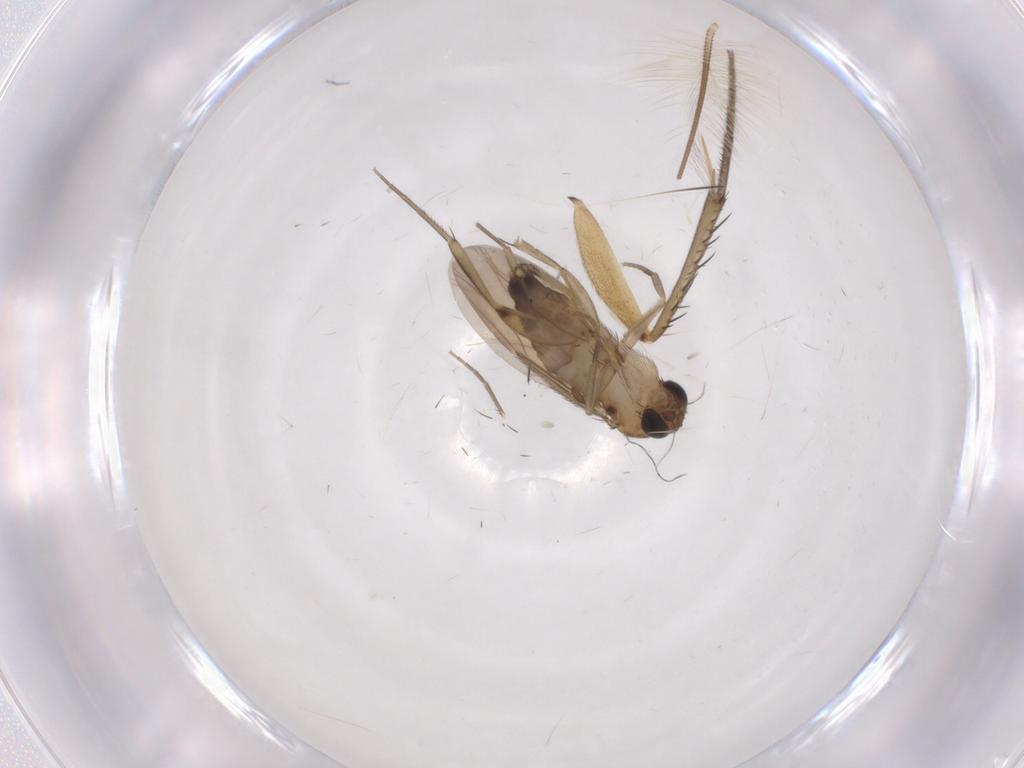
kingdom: Animalia
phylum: Arthropoda
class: Insecta
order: Diptera
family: Phoridae
